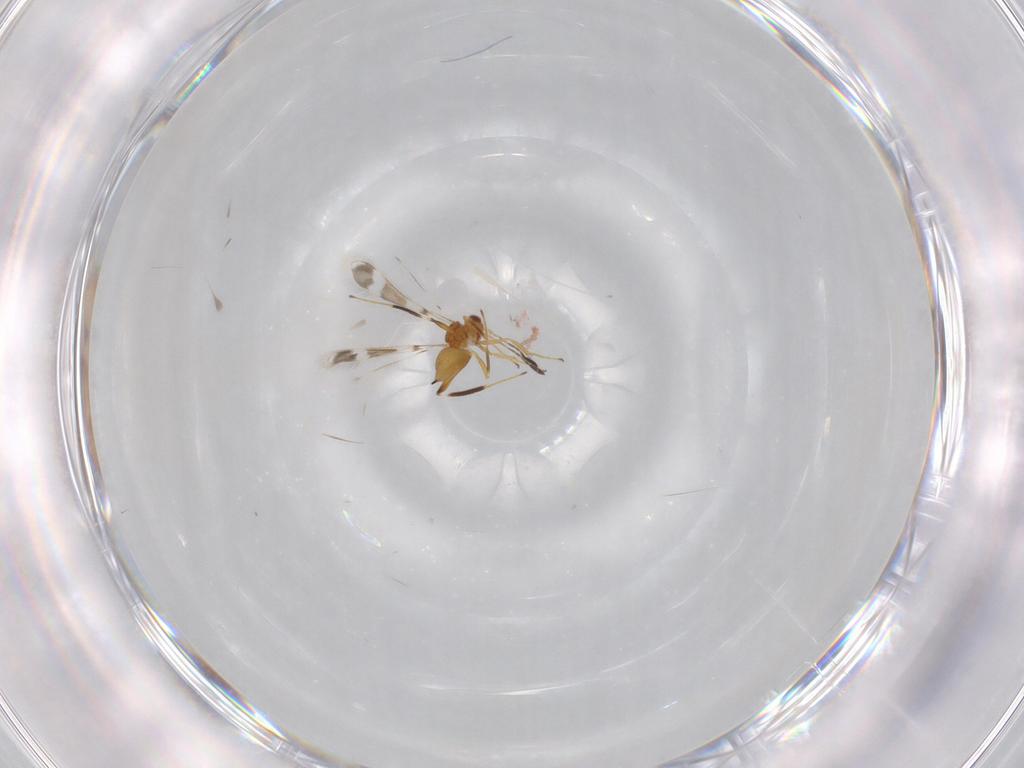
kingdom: Animalia
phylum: Arthropoda
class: Insecta
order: Hymenoptera
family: Mymaridae
